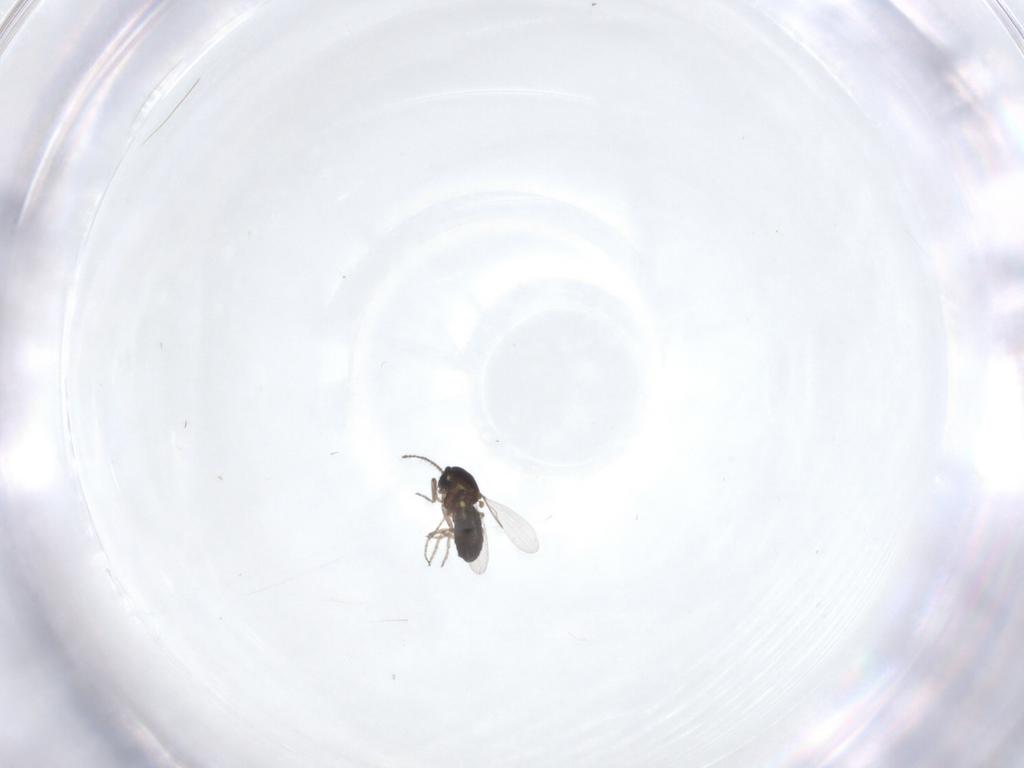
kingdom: Animalia
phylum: Arthropoda
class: Insecta
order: Diptera
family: Ceratopogonidae
